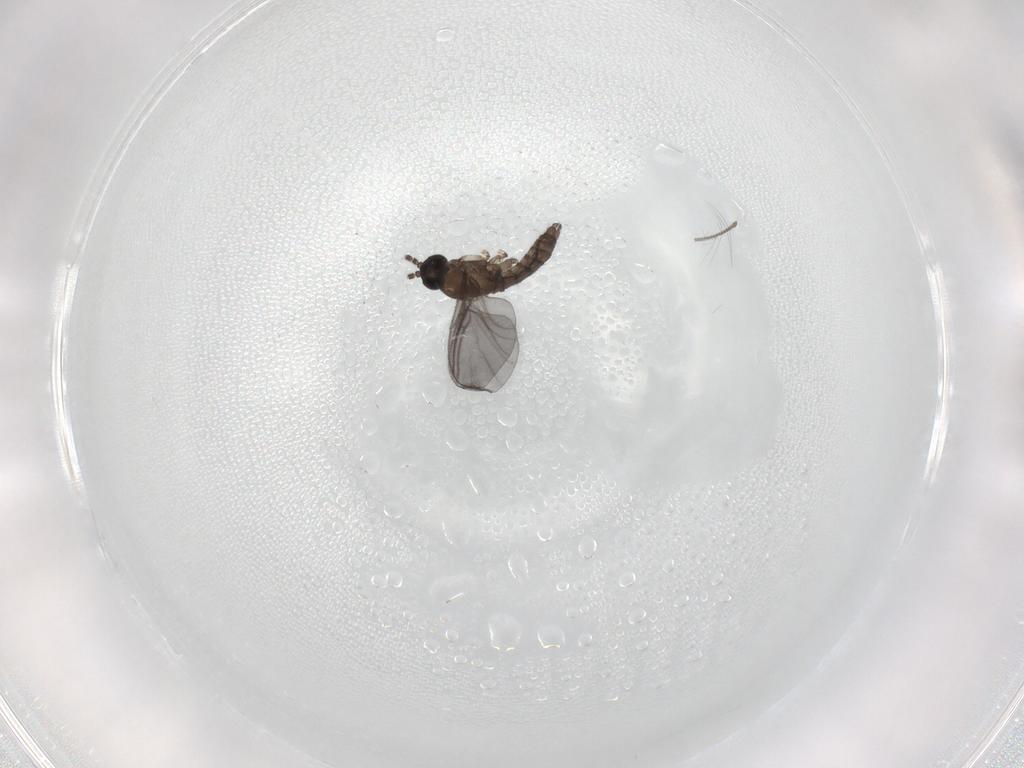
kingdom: Animalia
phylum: Arthropoda
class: Insecta
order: Diptera
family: Chironomidae
